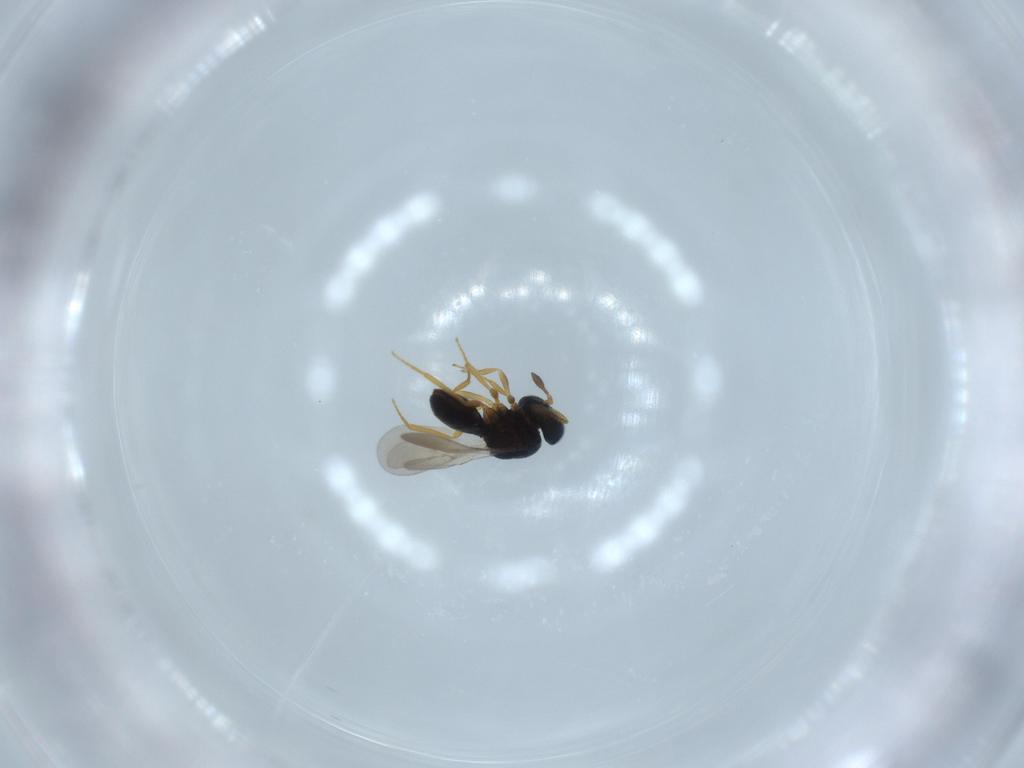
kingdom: Animalia
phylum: Arthropoda
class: Insecta
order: Hymenoptera
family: Scelionidae
